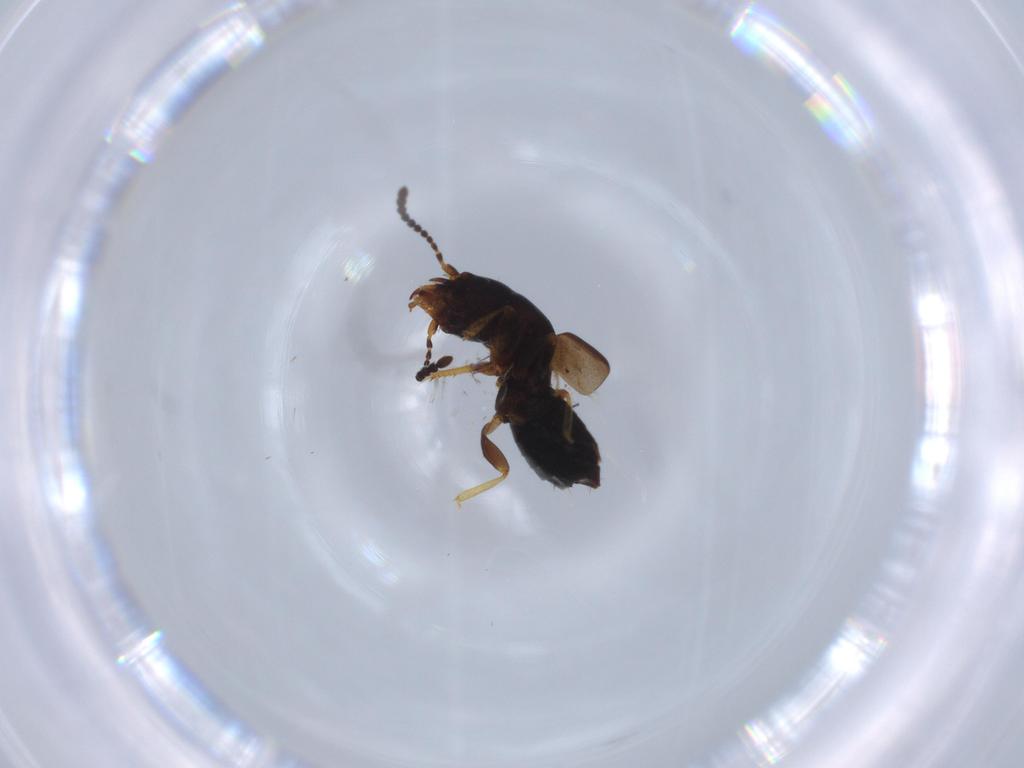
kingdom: Animalia
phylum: Arthropoda
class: Insecta
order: Coleoptera
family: Staphylinidae
